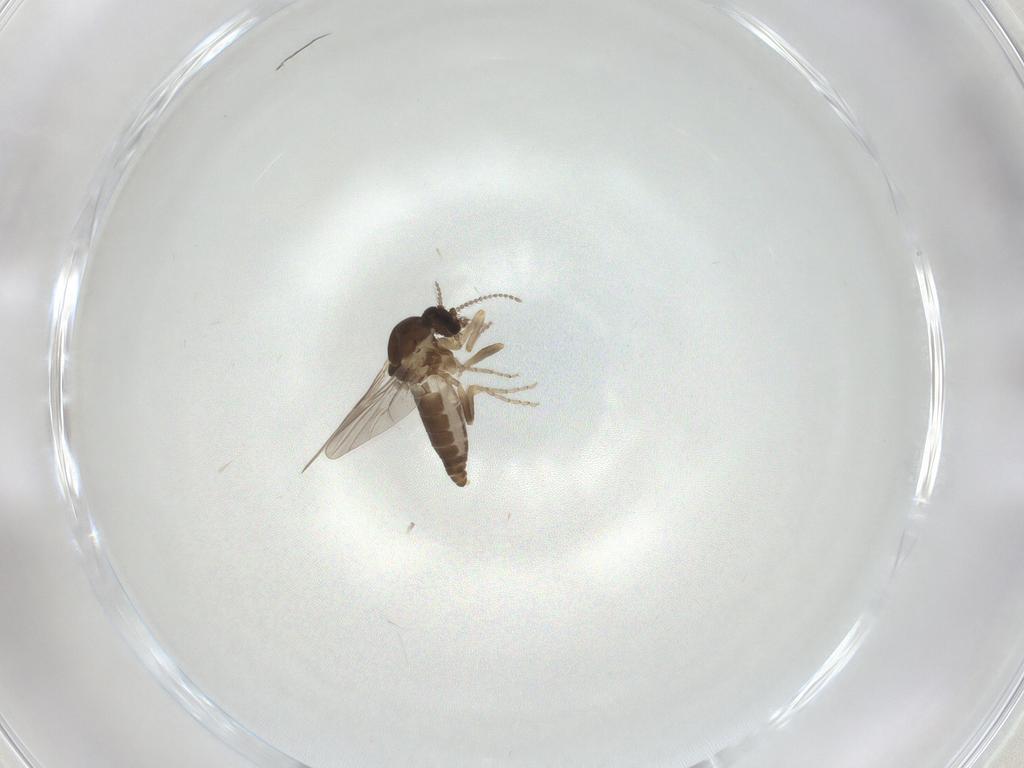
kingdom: Animalia
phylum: Arthropoda
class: Insecta
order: Diptera
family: Ceratopogonidae
